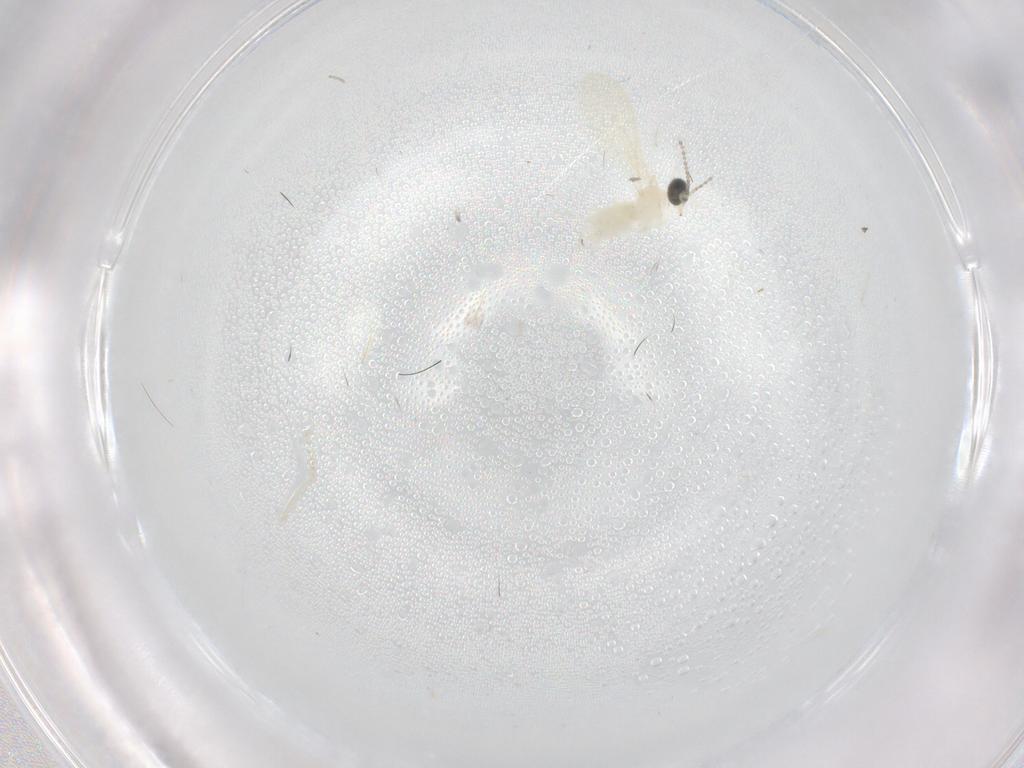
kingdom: Animalia
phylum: Arthropoda
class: Insecta
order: Diptera
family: Cecidomyiidae
